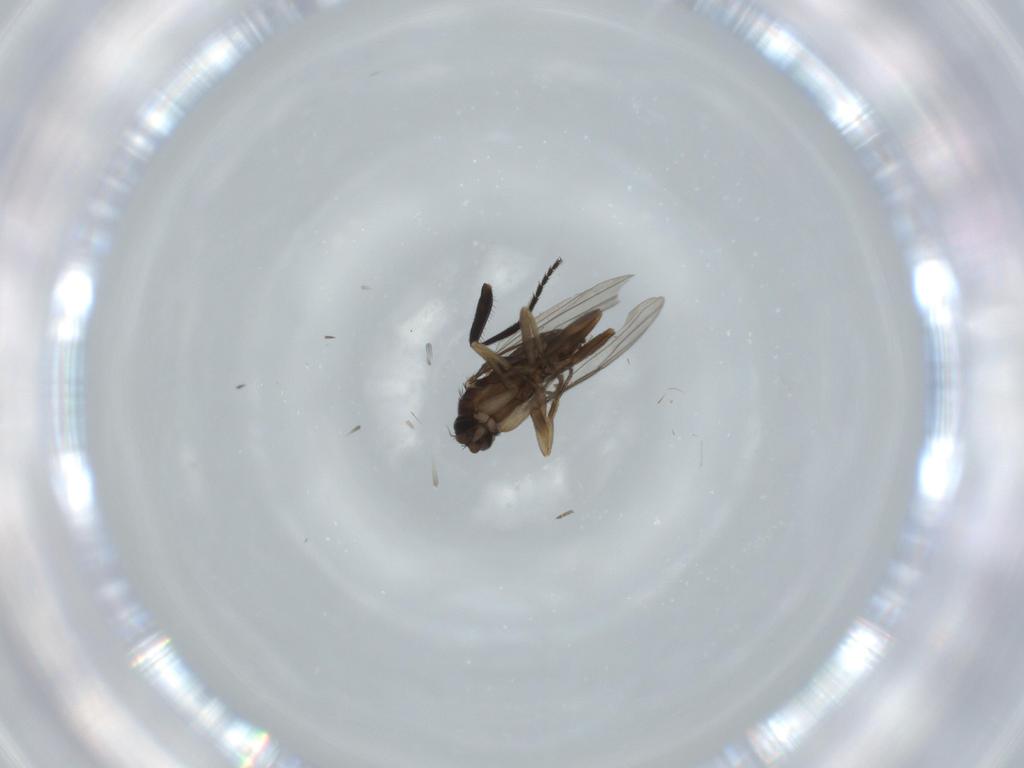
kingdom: Animalia
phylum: Arthropoda
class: Insecta
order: Diptera
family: Phoridae
